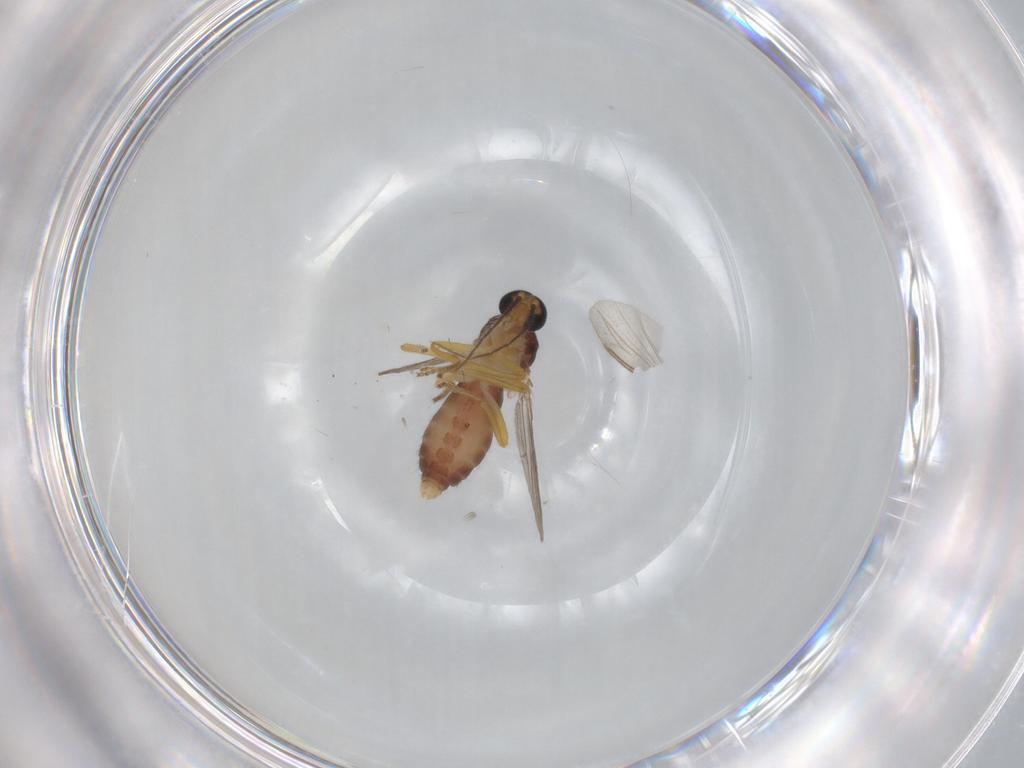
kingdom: Animalia
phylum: Arthropoda
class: Insecta
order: Diptera
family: Ceratopogonidae
